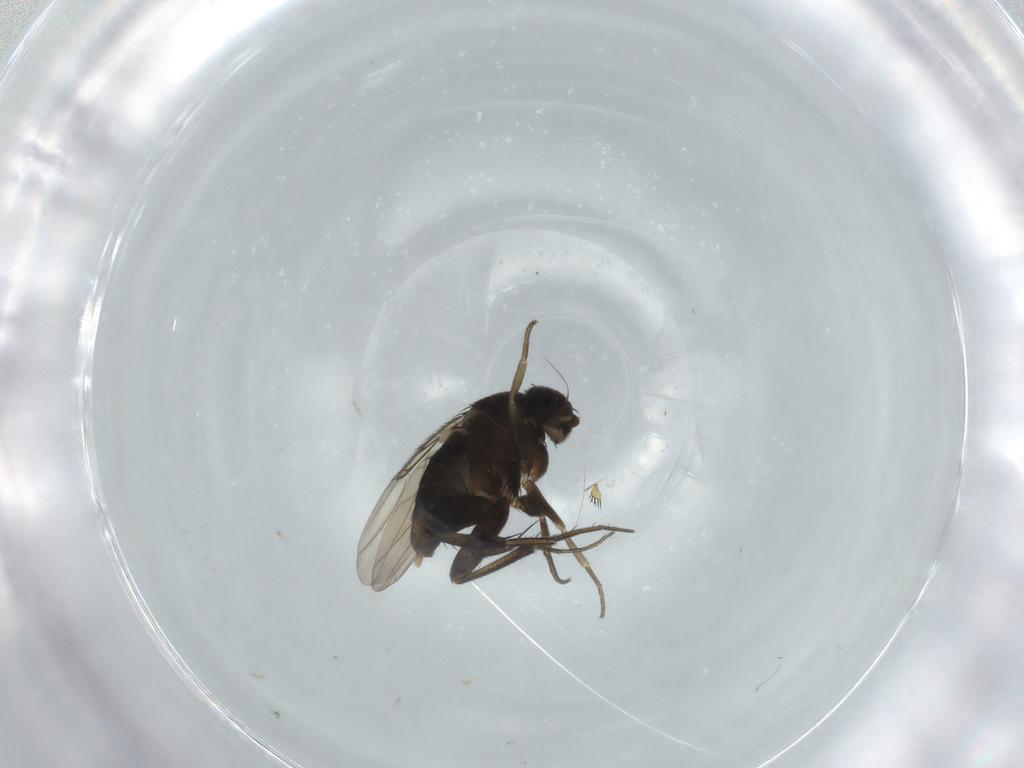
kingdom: Animalia
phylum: Arthropoda
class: Insecta
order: Diptera
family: Phoridae
